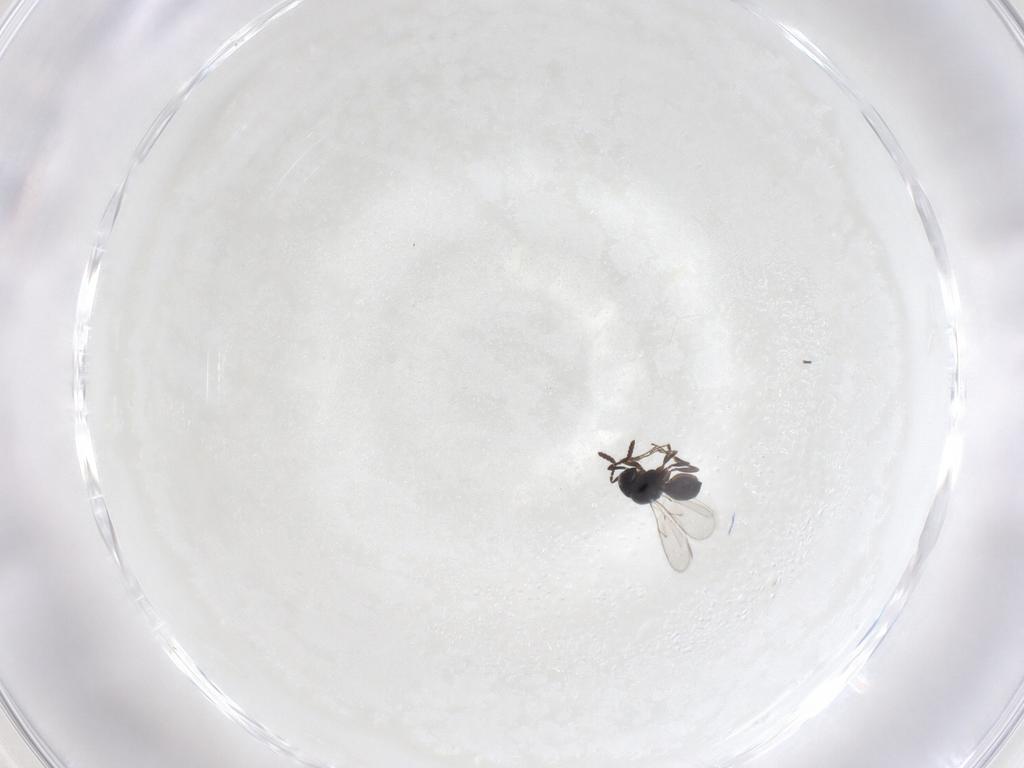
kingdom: Animalia
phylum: Arthropoda
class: Insecta
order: Hymenoptera
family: Scelionidae
